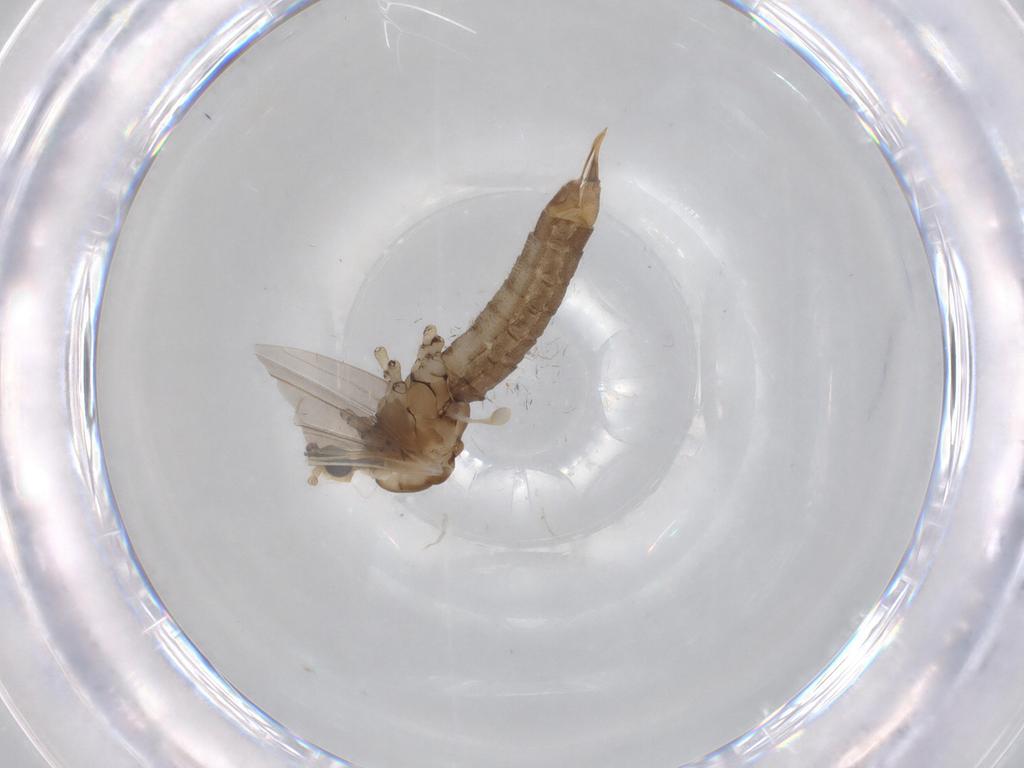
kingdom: Animalia
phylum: Arthropoda
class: Insecta
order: Diptera
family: Limoniidae
